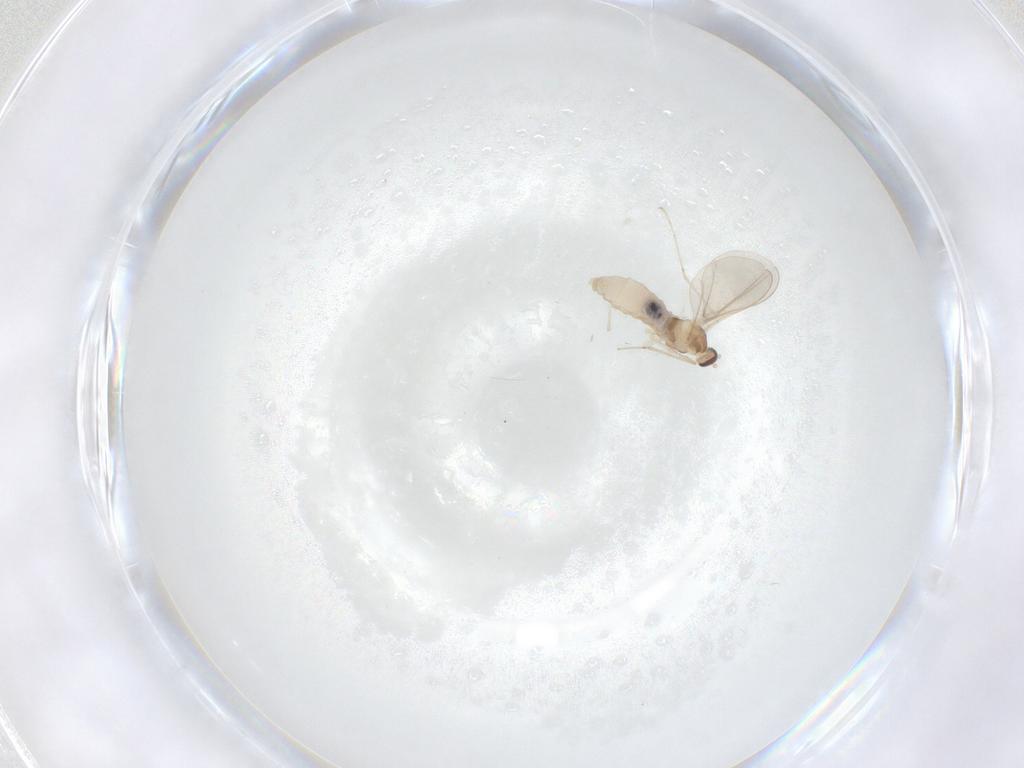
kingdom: Animalia
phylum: Arthropoda
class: Insecta
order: Diptera
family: Ceratopogonidae
